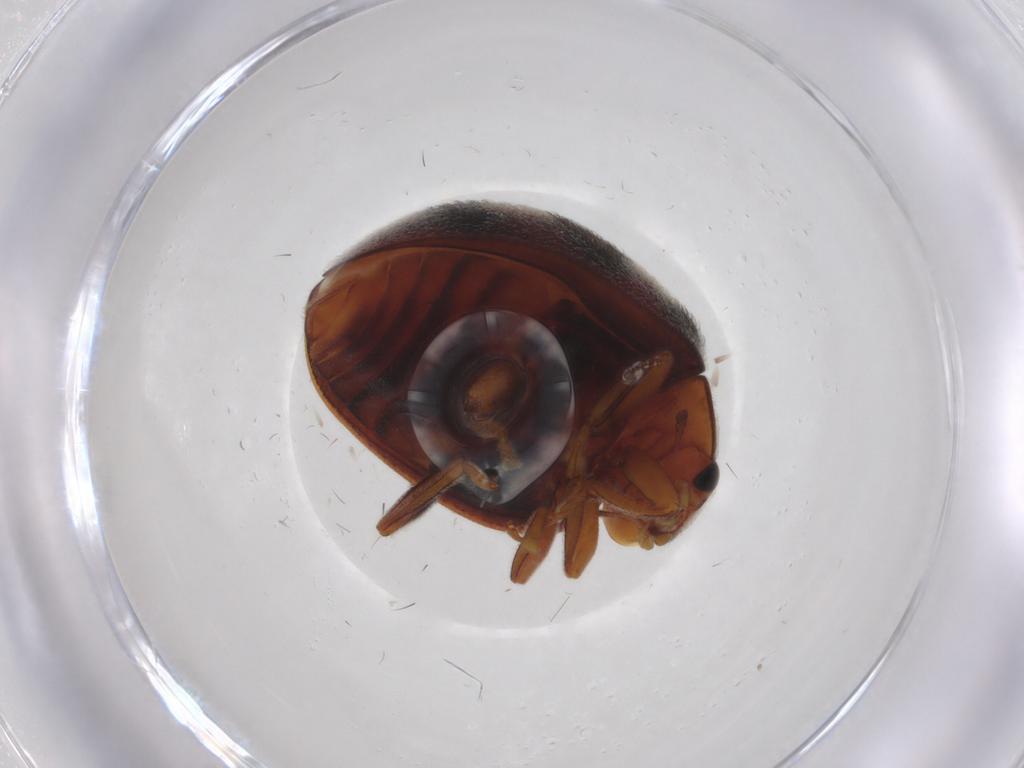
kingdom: Animalia
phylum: Arthropoda
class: Insecta
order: Coleoptera
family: Coccinellidae
